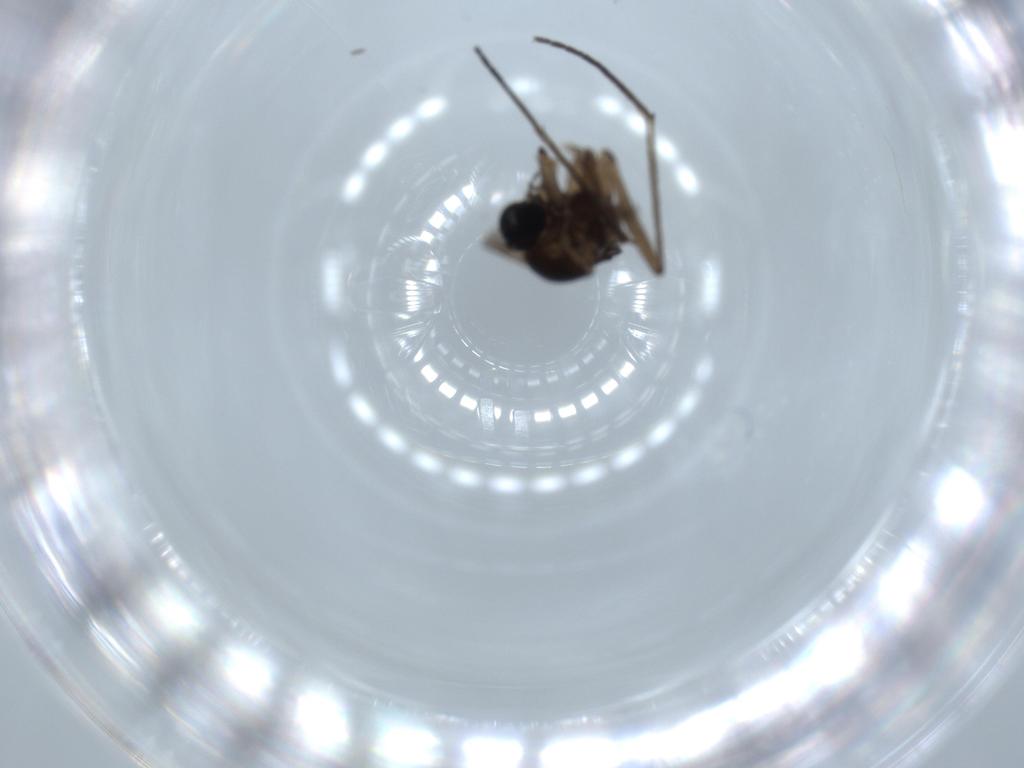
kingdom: Animalia
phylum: Arthropoda
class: Insecta
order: Diptera
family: Sciaridae
